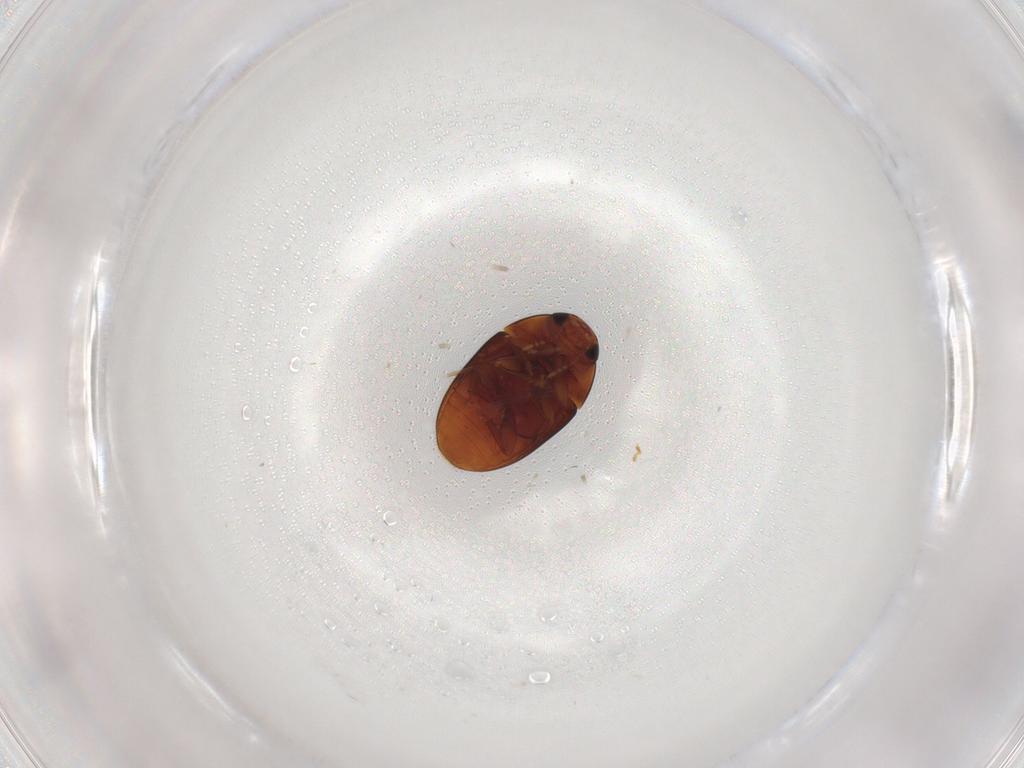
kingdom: Animalia
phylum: Arthropoda
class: Insecta
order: Coleoptera
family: Phalacridae
